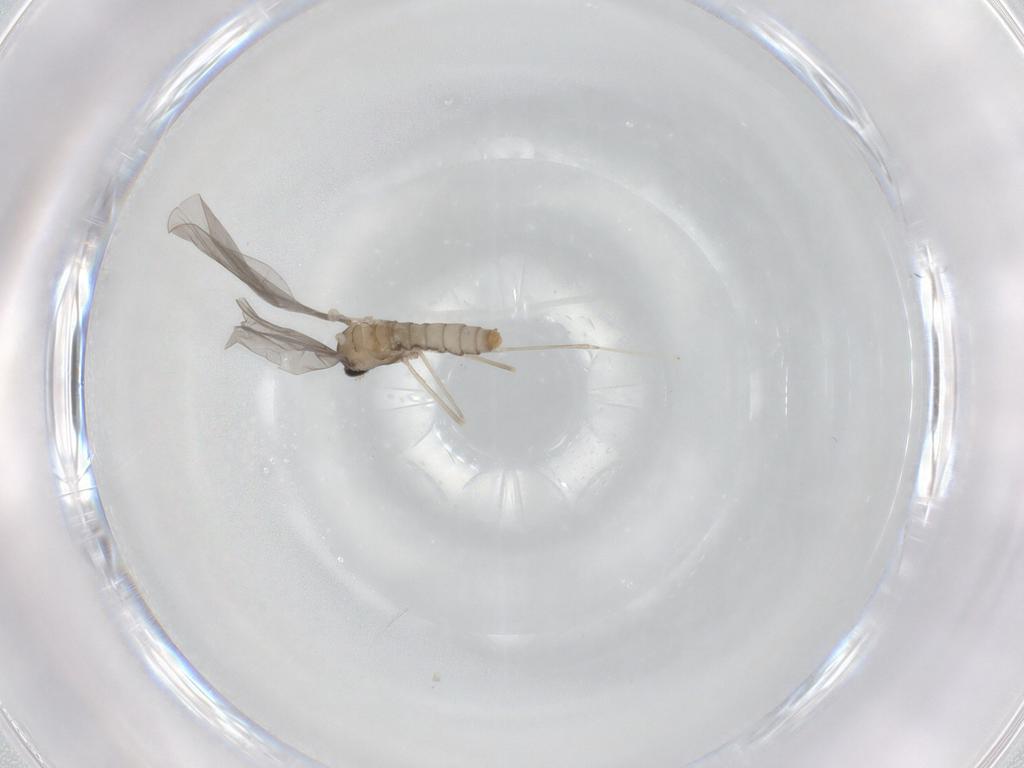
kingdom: Animalia
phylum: Arthropoda
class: Insecta
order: Diptera
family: Cecidomyiidae
